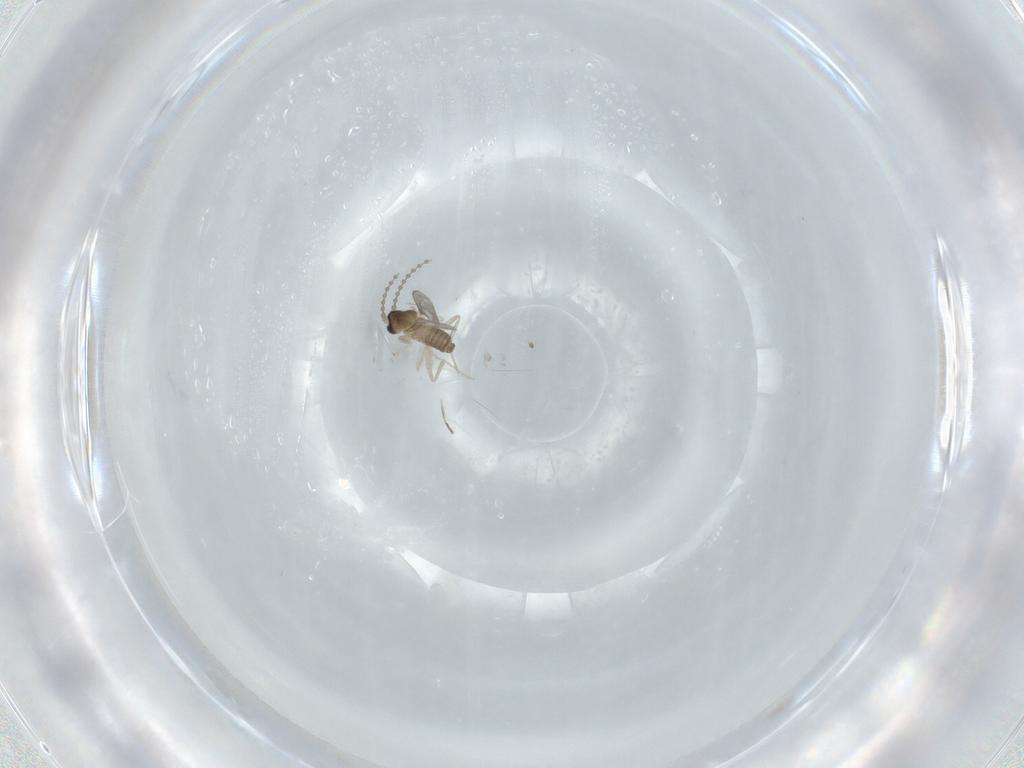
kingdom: Animalia
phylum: Arthropoda
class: Insecta
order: Diptera
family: Cecidomyiidae
